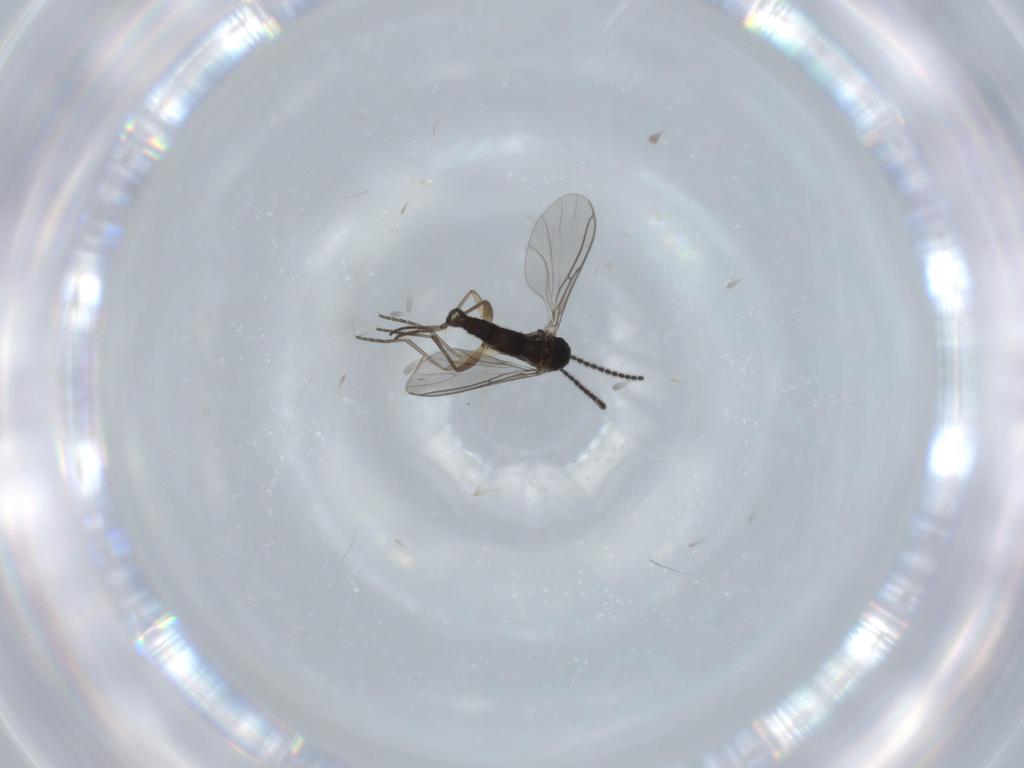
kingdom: Animalia
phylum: Arthropoda
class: Insecta
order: Diptera
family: Sciaridae
